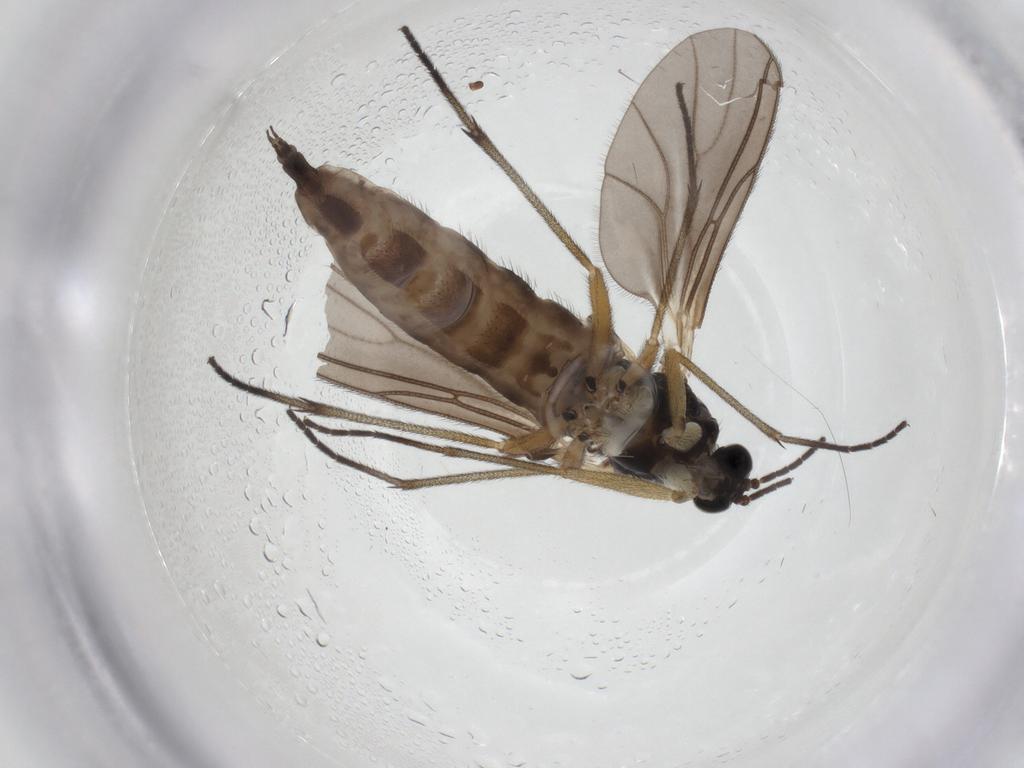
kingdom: Animalia
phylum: Arthropoda
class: Insecta
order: Diptera
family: Sciaridae
